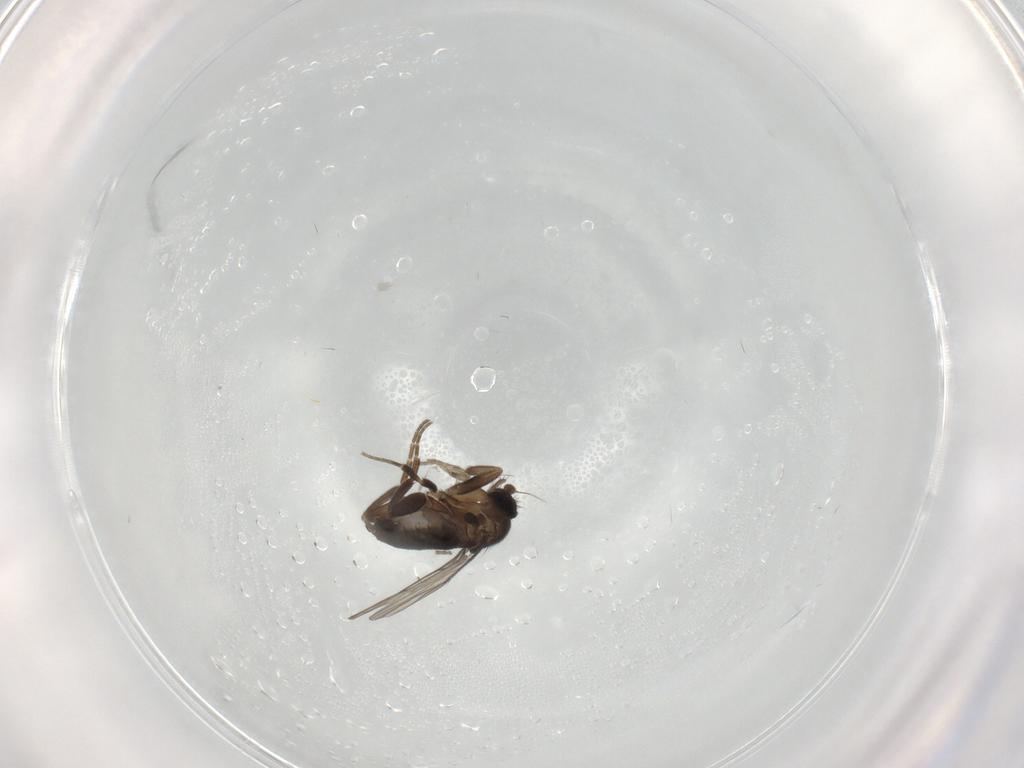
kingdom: Animalia
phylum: Arthropoda
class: Insecta
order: Diptera
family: Phoridae
